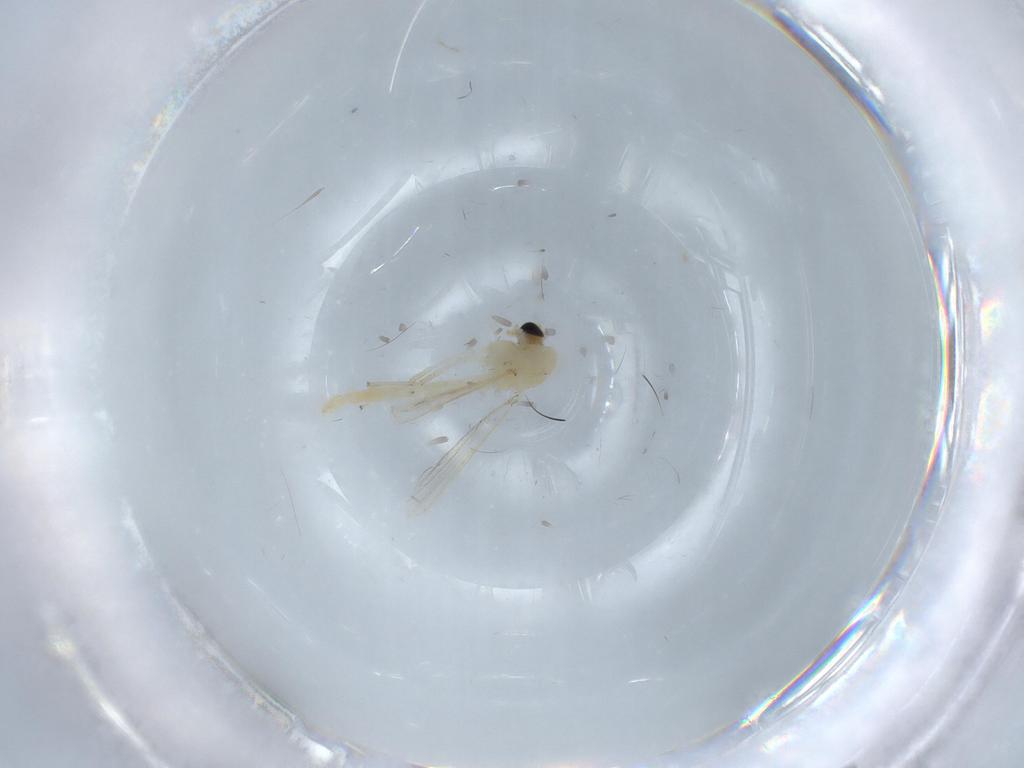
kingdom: Animalia
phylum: Arthropoda
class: Insecta
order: Diptera
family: Chironomidae
